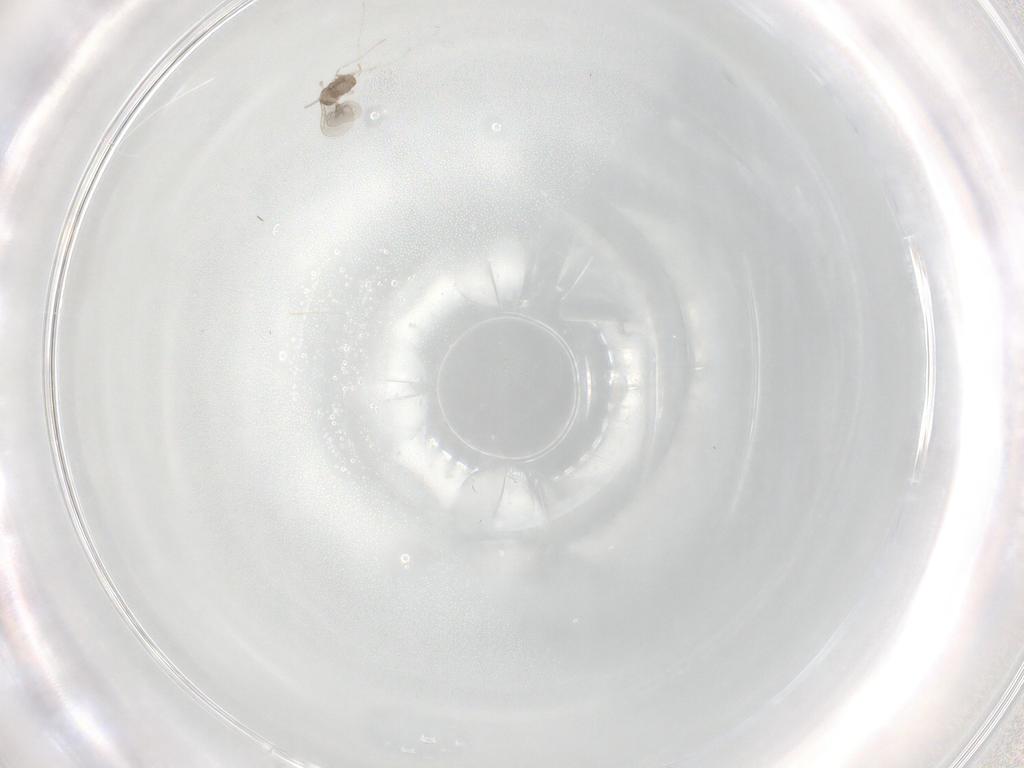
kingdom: Animalia
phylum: Arthropoda
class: Insecta
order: Diptera
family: Cecidomyiidae
